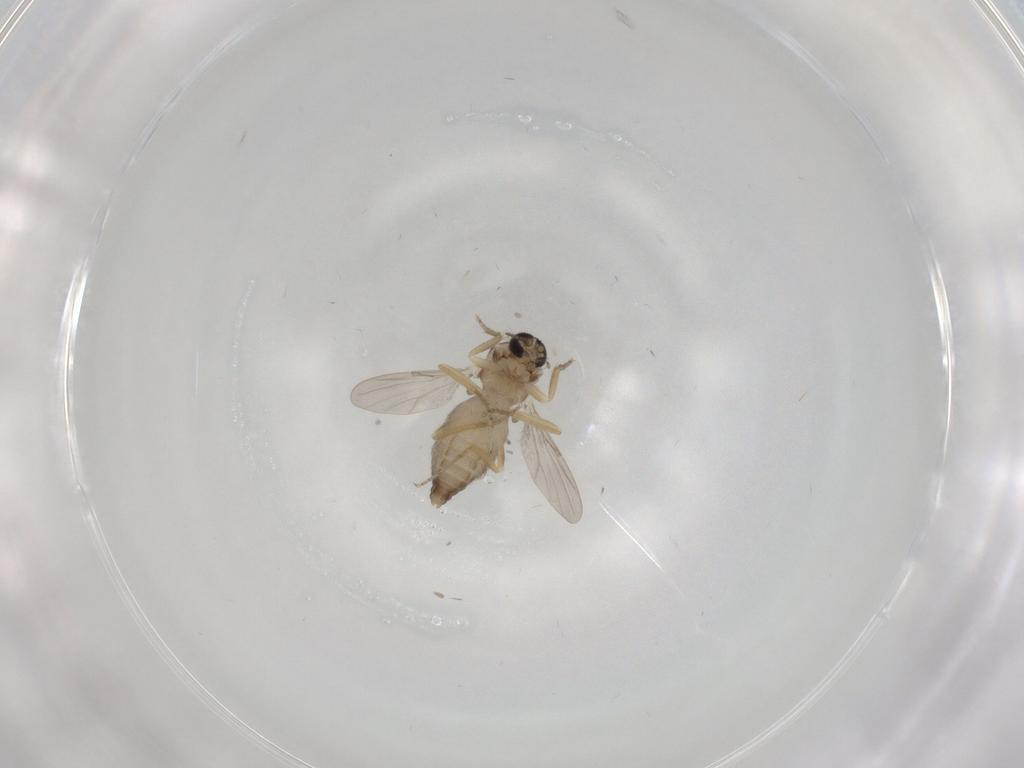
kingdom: Animalia
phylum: Arthropoda
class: Insecta
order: Diptera
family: Ceratopogonidae
